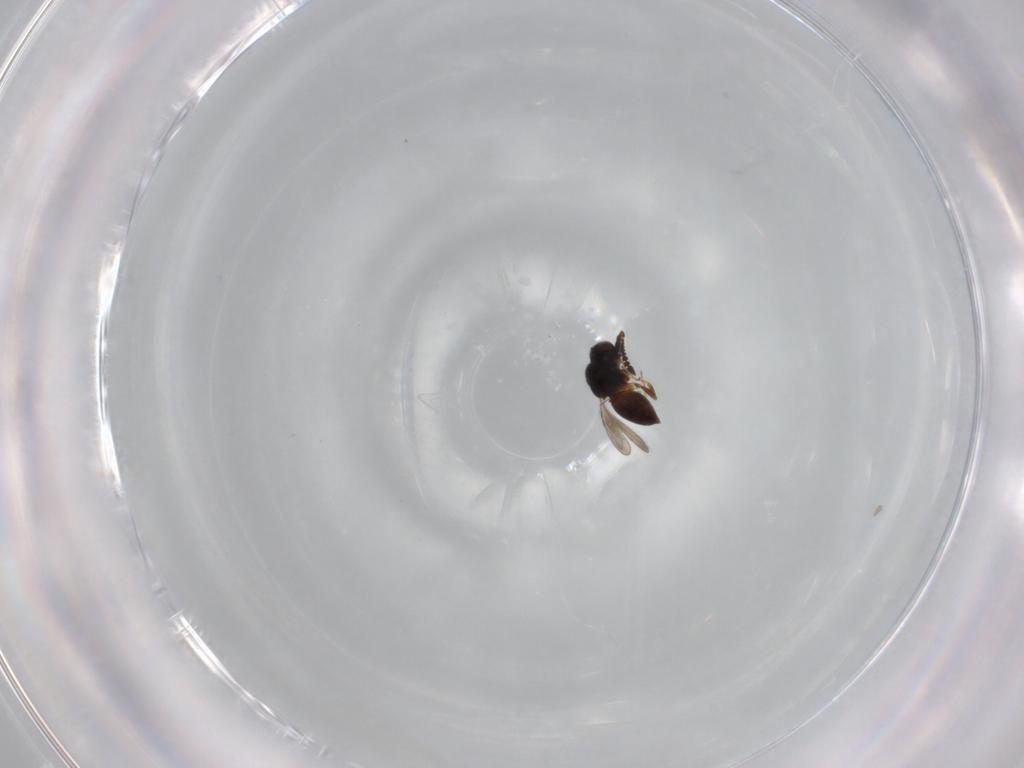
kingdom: Animalia
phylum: Arthropoda
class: Insecta
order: Hymenoptera
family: Ceraphronidae
